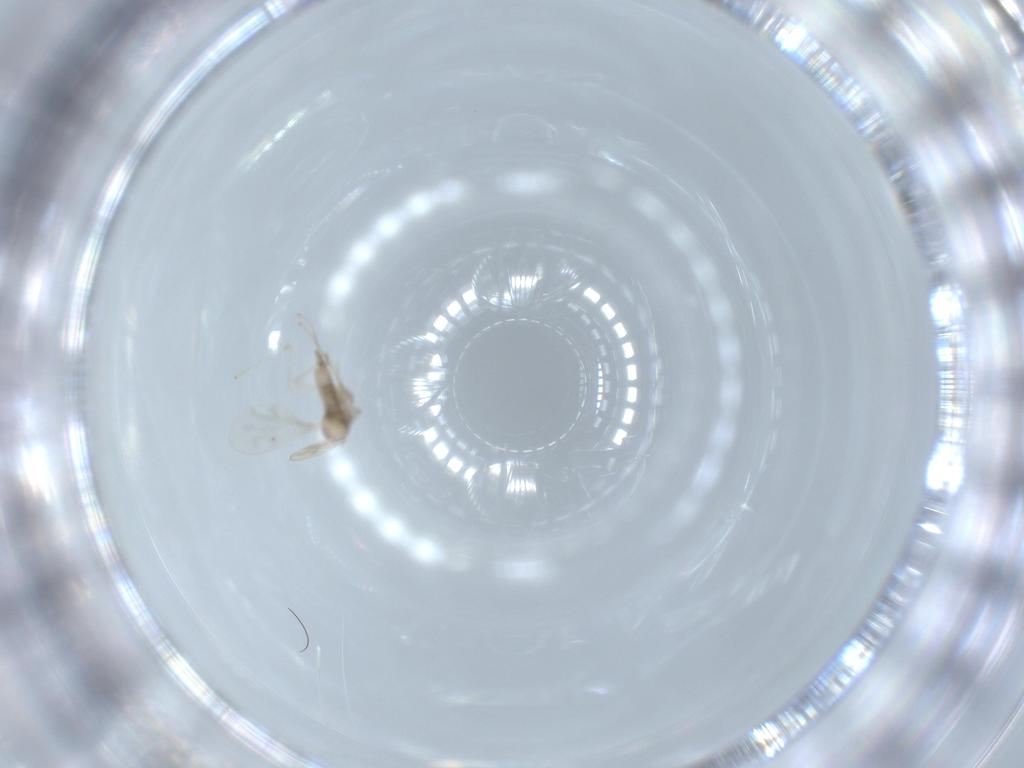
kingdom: Animalia
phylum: Arthropoda
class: Insecta
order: Diptera
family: Cecidomyiidae
